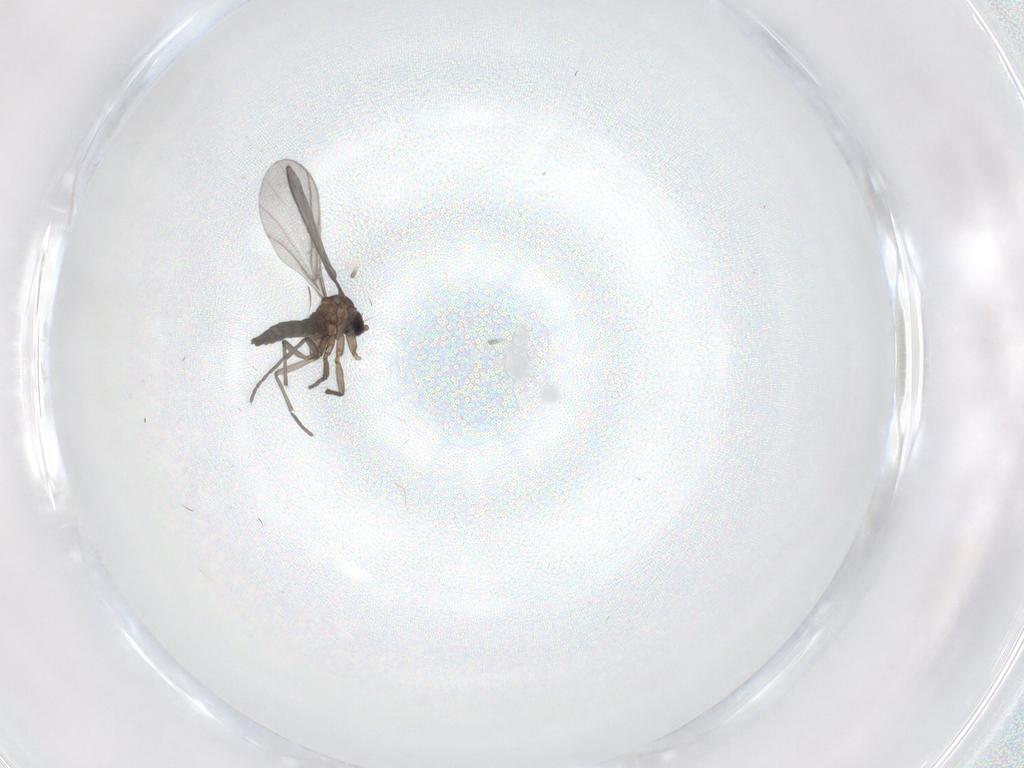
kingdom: Animalia
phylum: Arthropoda
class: Insecta
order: Diptera
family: Sciaridae
